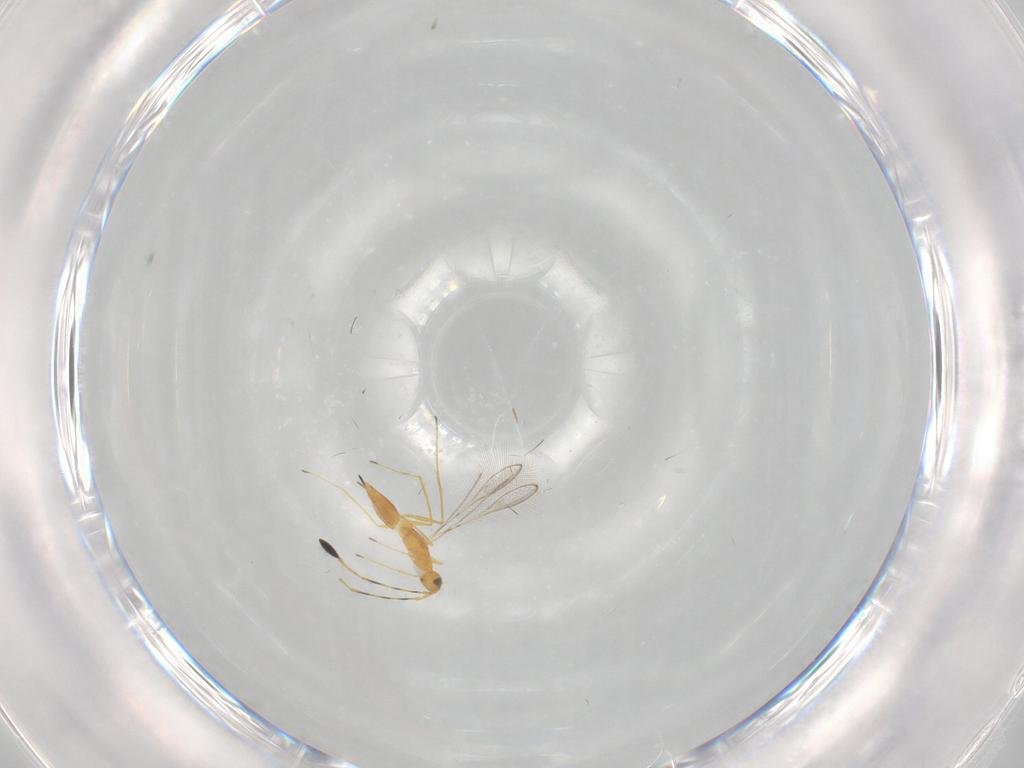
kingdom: Animalia
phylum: Arthropoda
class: Insecta
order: Hymenoptera
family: Mymaridae
